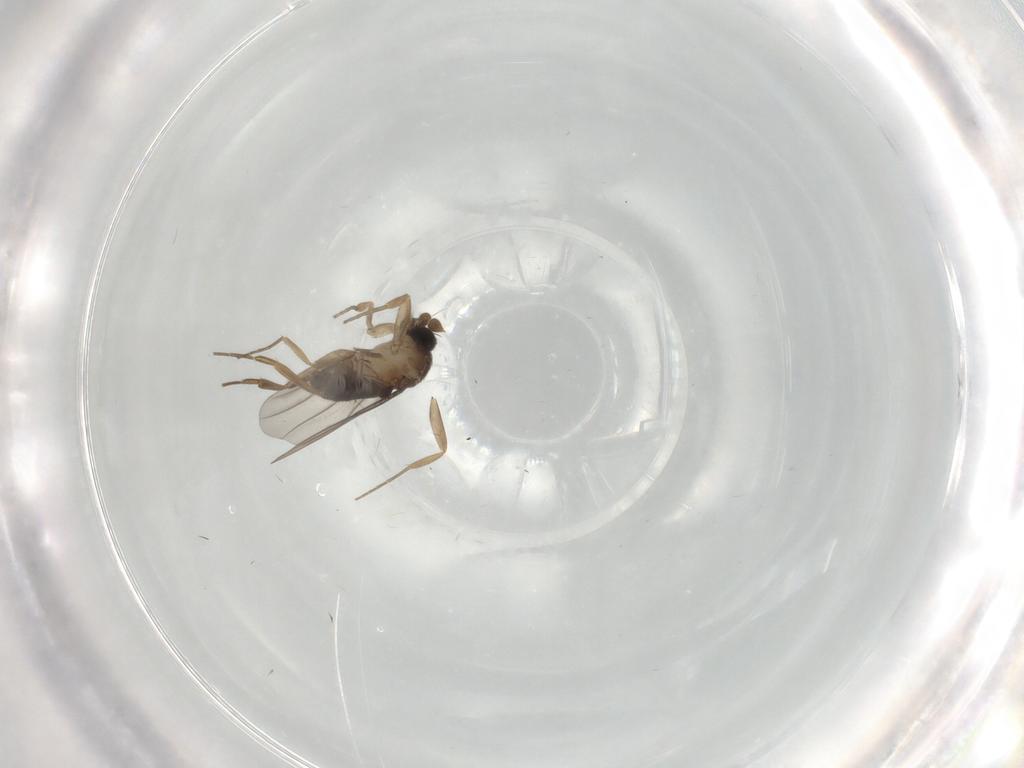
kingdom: Animalia
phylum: Arthropoda
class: Insecta
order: Diptera
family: Phoridae
